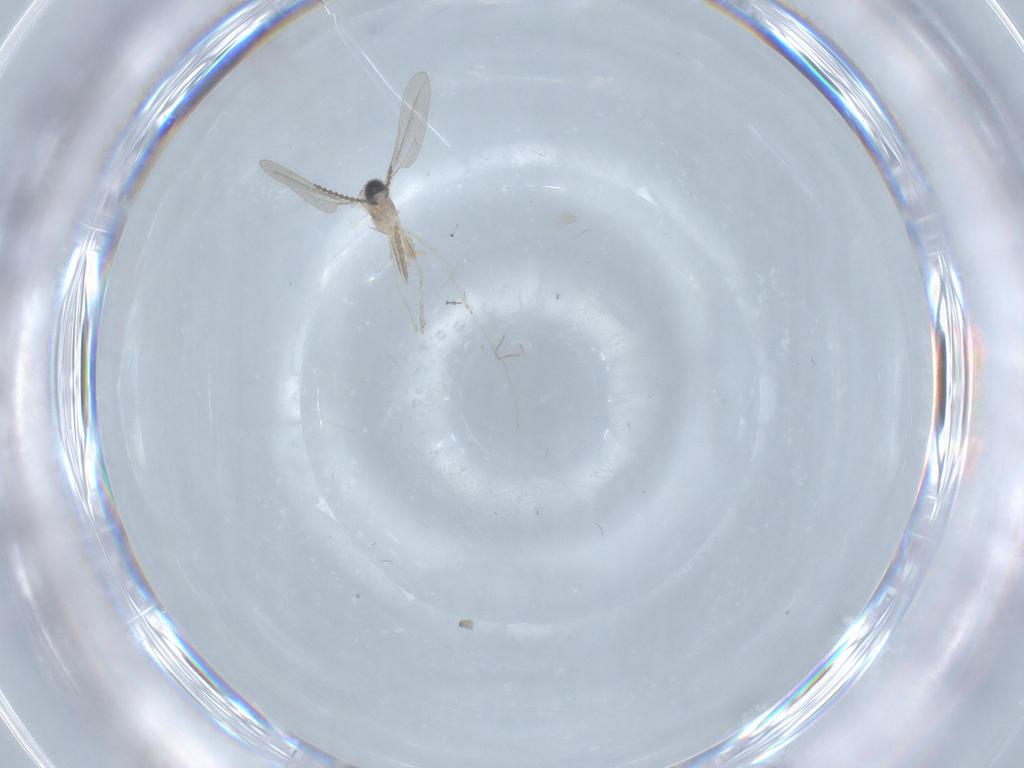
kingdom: Animalia
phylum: Arthropoda
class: Insecta
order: Diptera
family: Cecidomyiidae
